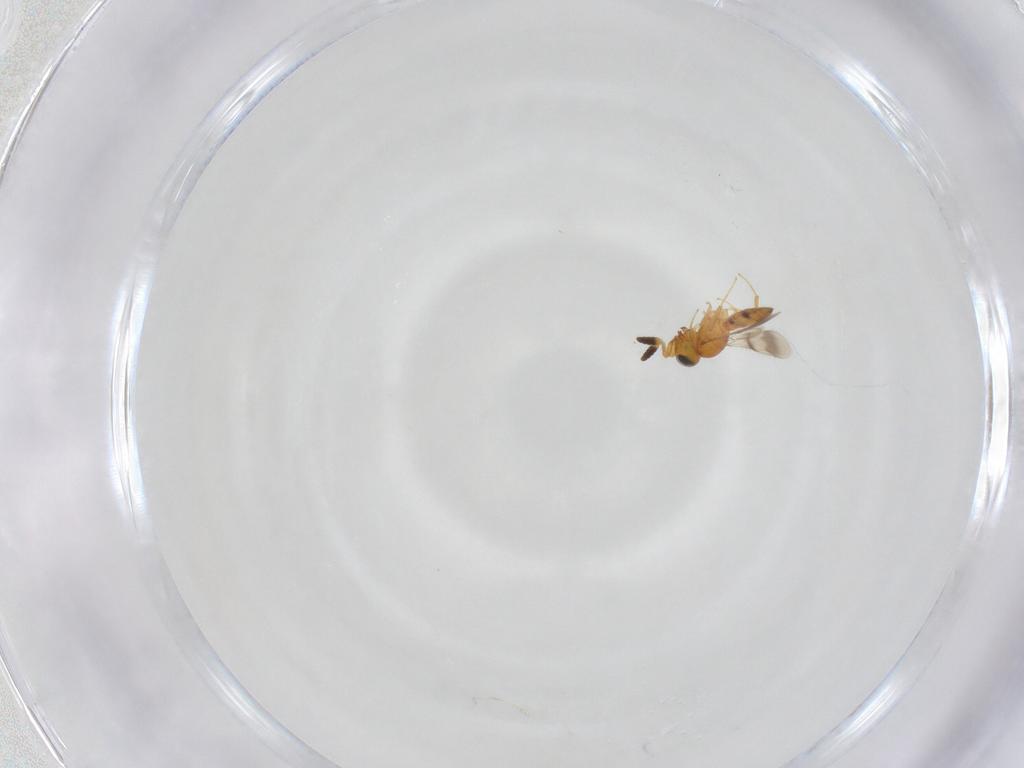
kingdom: Animalia
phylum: Arthropoda
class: Insecta
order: Hymenoptera
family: Scelionidae
